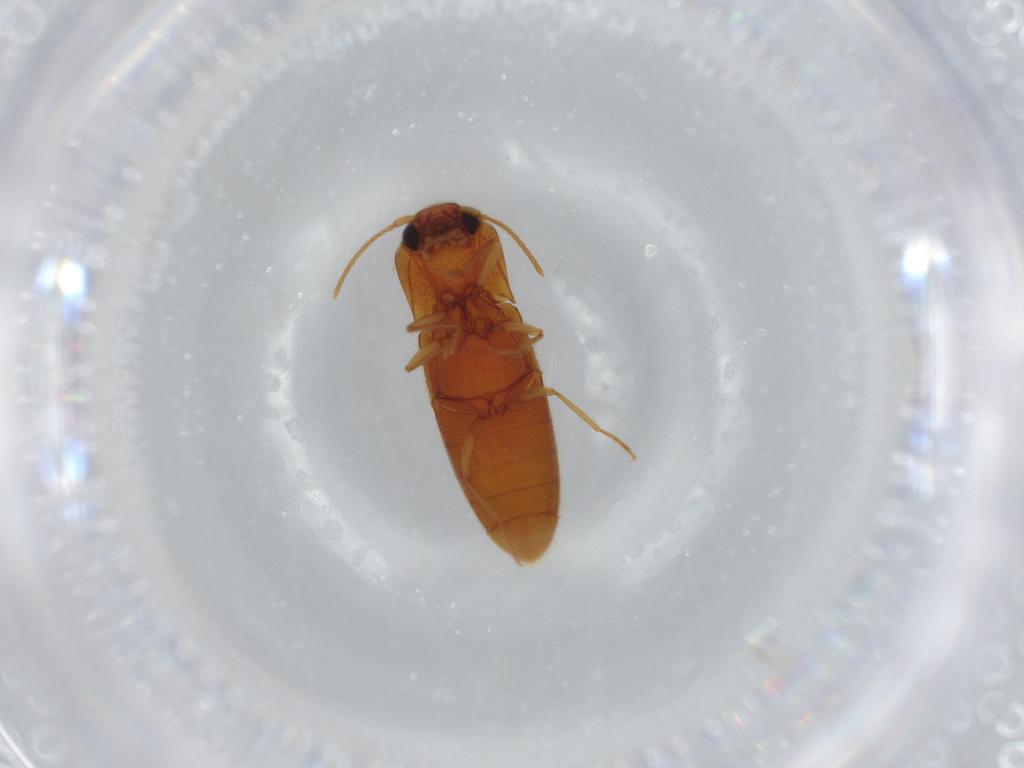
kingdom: Animalia
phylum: Arthropoda
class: Insecta
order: Coleoptera
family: Elateridae
